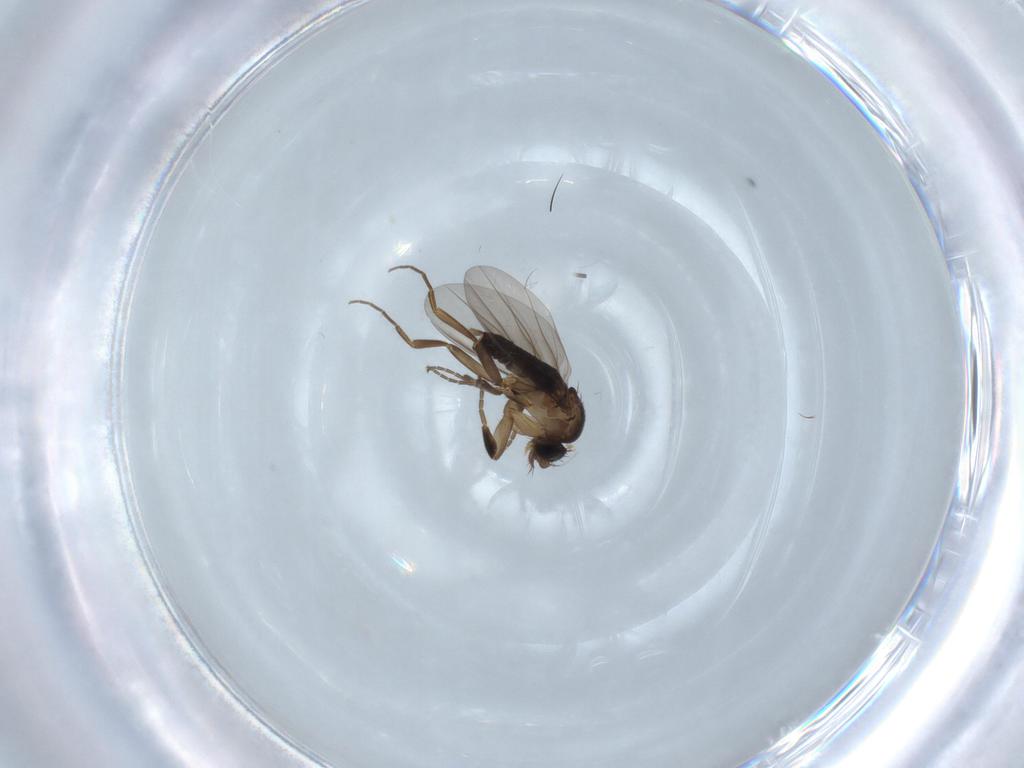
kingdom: Animalia
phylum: Arthropoda
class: Insecta
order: Diptera
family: Phoridae
